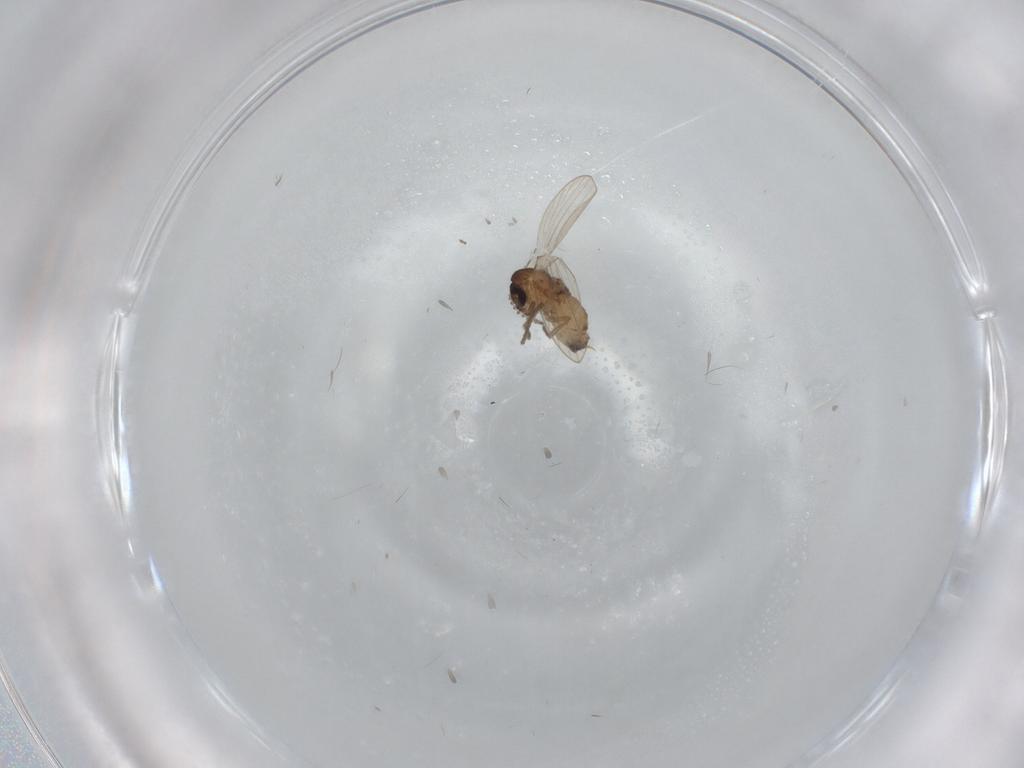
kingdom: Animalia
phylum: Arthropoda
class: Insecta
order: Diptera
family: Psychodidae
